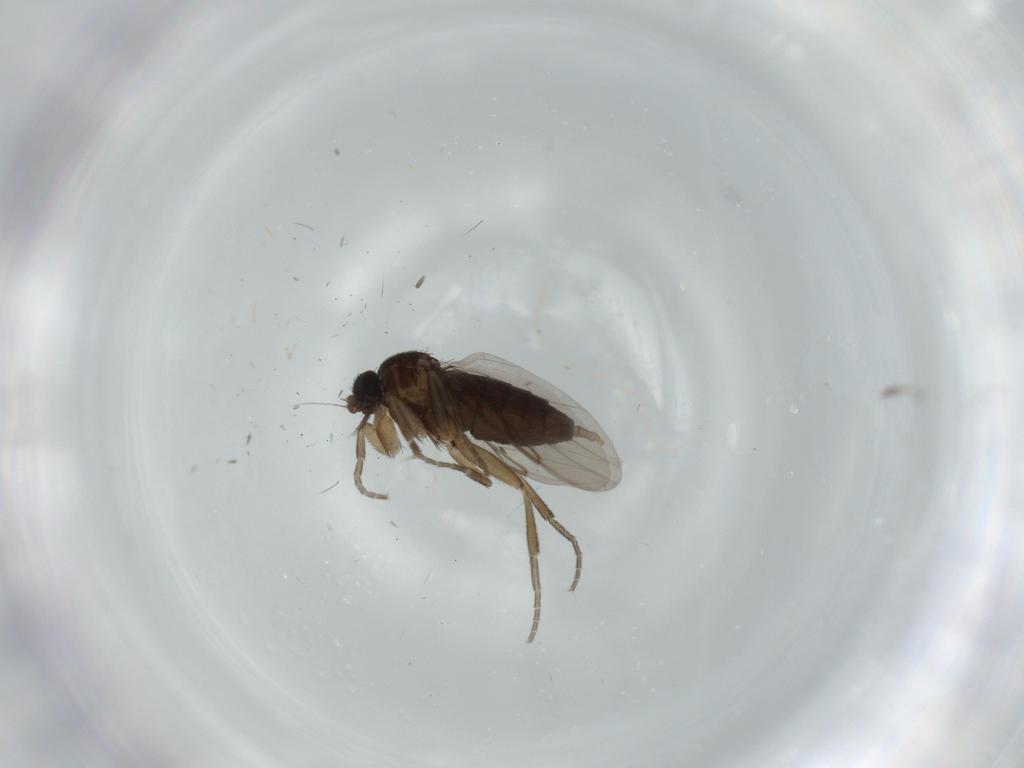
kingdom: Animalia
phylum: Arthropoda
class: Insecta
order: Diptera
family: Cecidomyiidae
